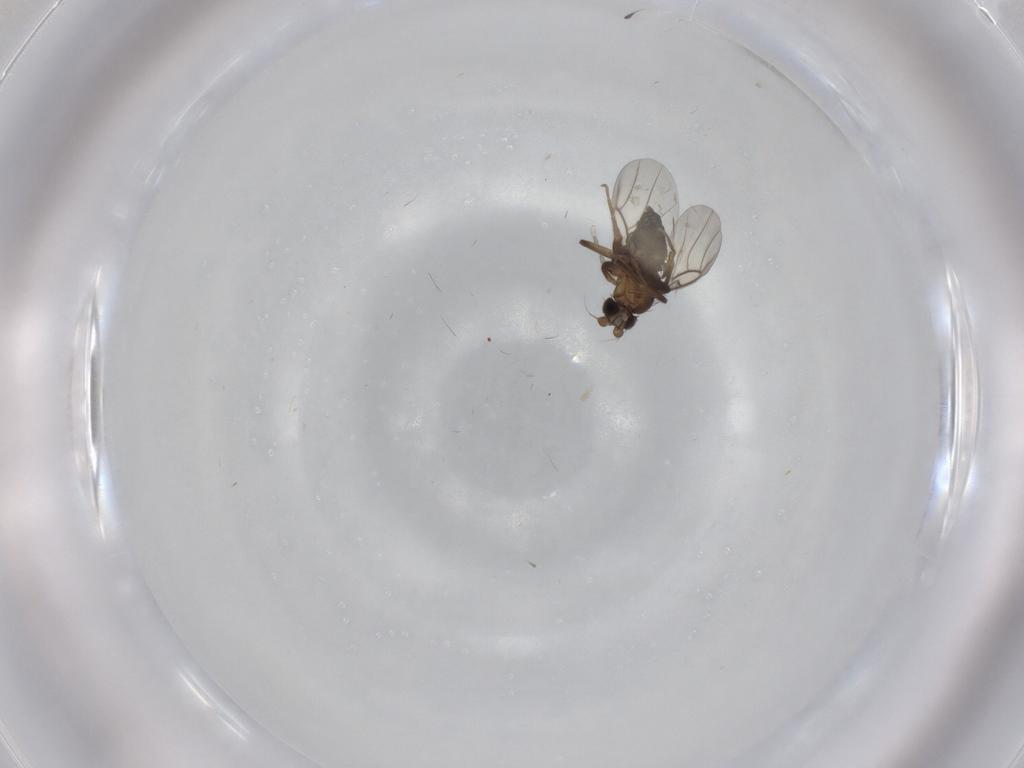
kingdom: Animalia
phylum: Arthropoda
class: Insecta
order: Diptera
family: Phoridae
